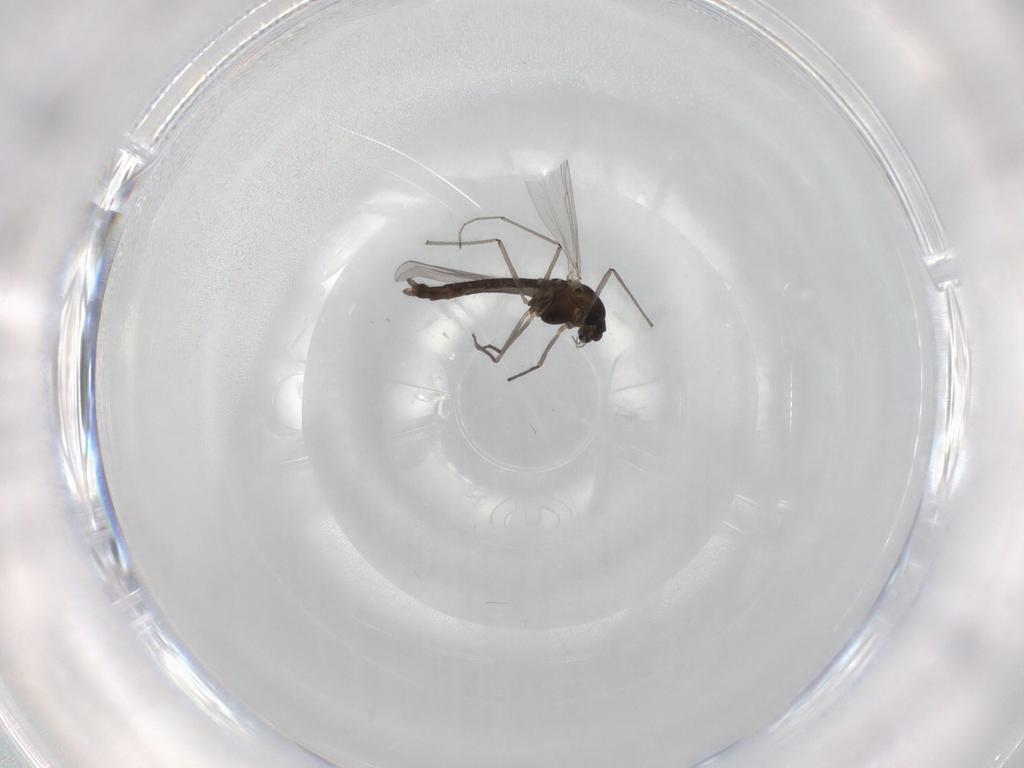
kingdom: Animalia
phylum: Arthropoda
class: Insecta
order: Diptera
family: Chironomidae
